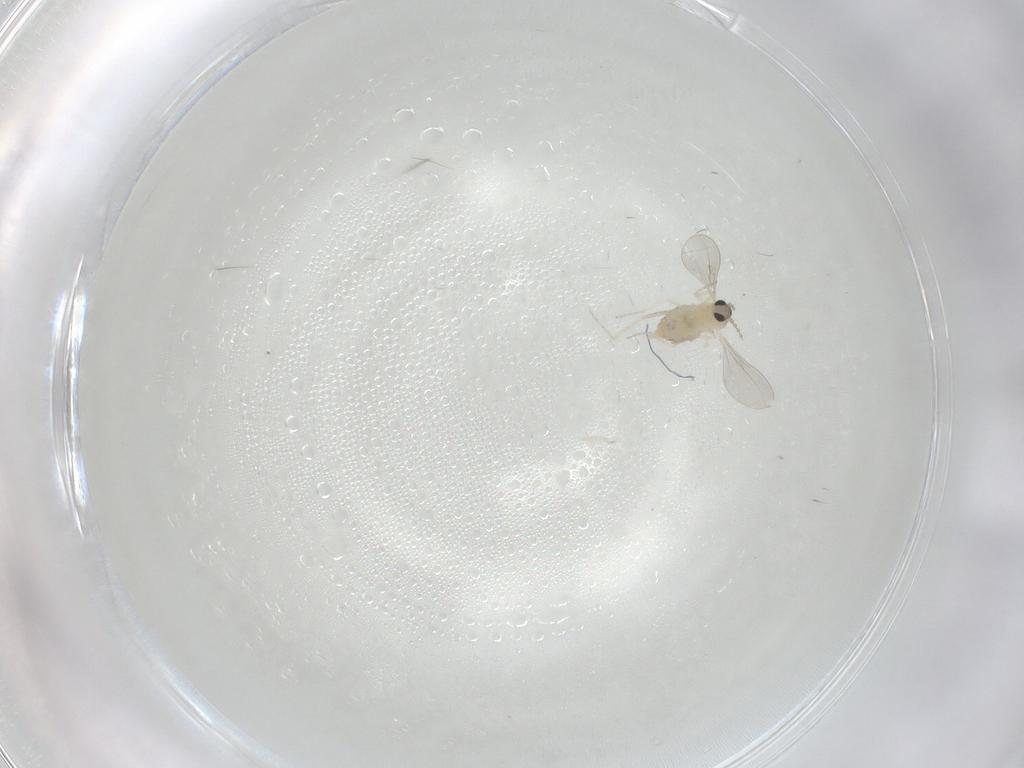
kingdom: Animalia
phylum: Arthropoda
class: Insecta
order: Diptera
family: Cecidomyiidae
